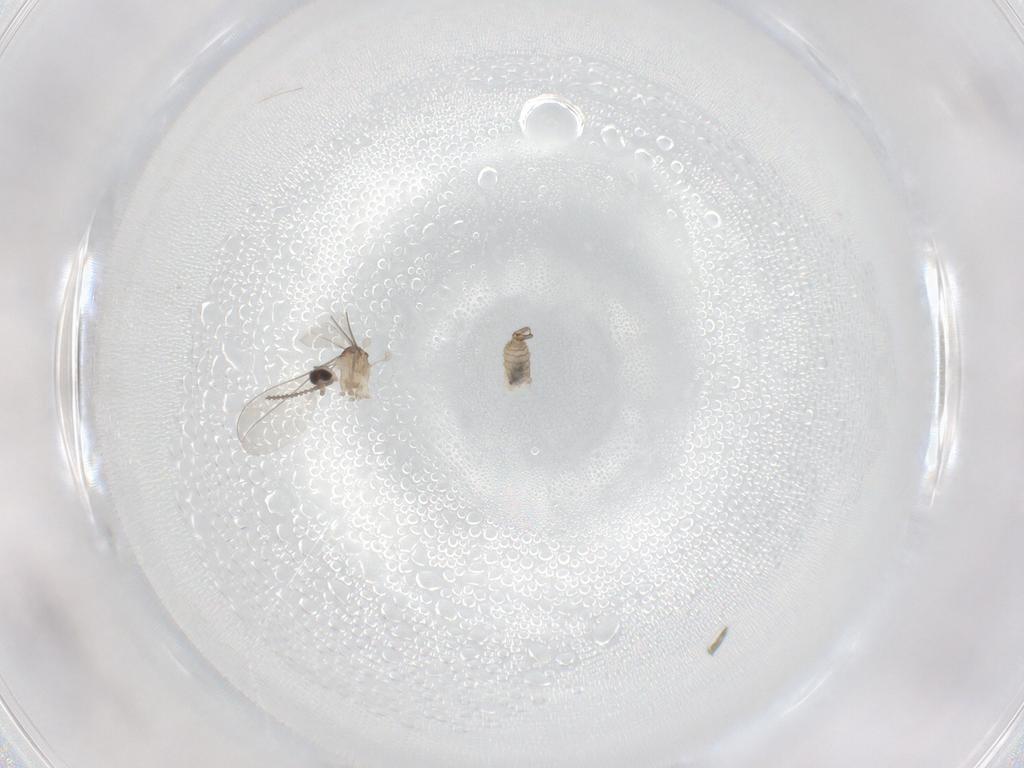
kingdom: Animalia
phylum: Arthropoda
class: Insecta
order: Diptera
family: Cecidomyiidae
